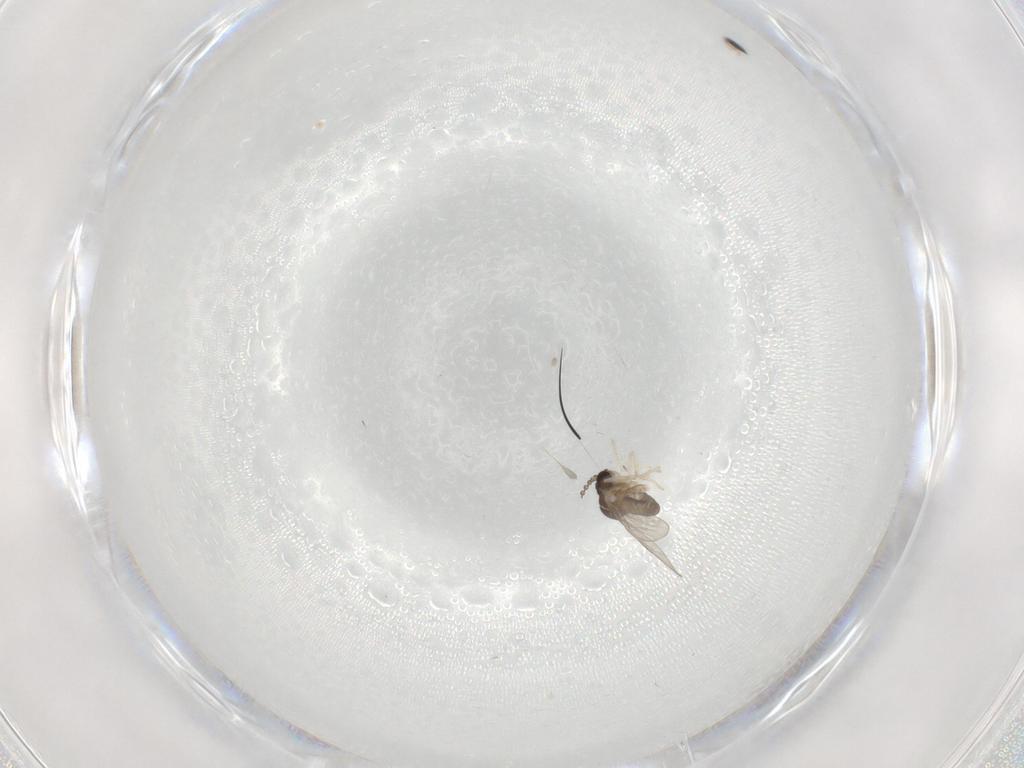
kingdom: Animalia
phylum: Arthropoda
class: Insecta
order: Diptera
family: Cecidomyiidae
